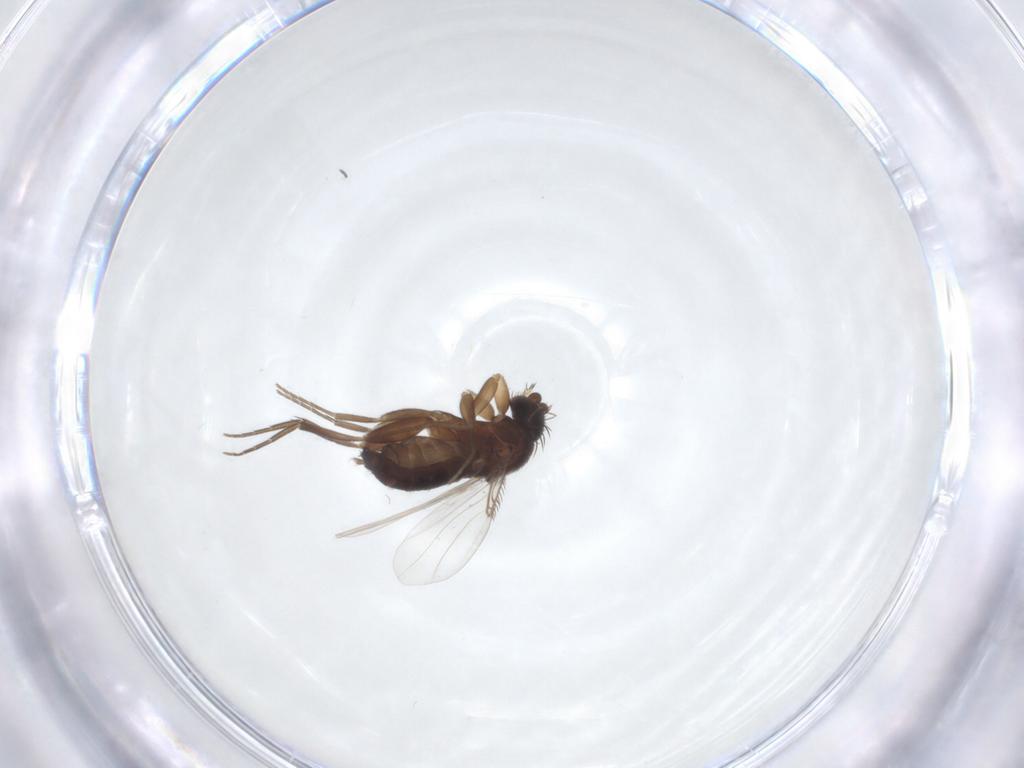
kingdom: Animalia
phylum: Arthropoda
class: Insecta
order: Diptera
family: Phoridae
